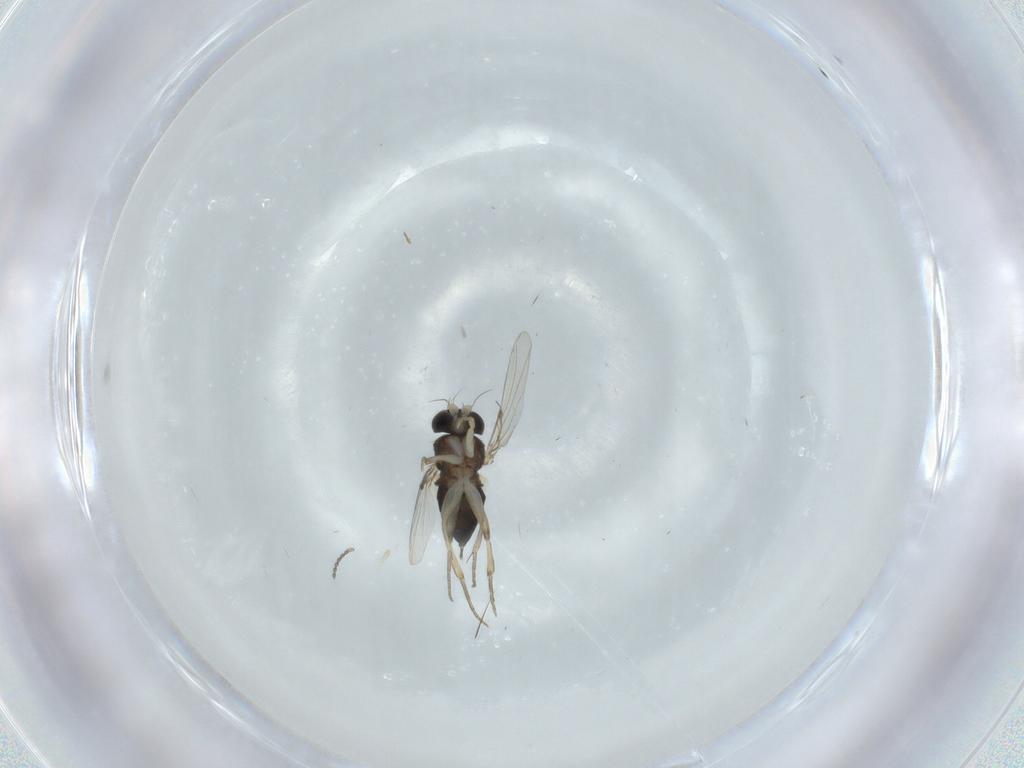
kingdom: Animalia
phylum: Arthropoda
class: Insecta
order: Diptera
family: Phoridae
